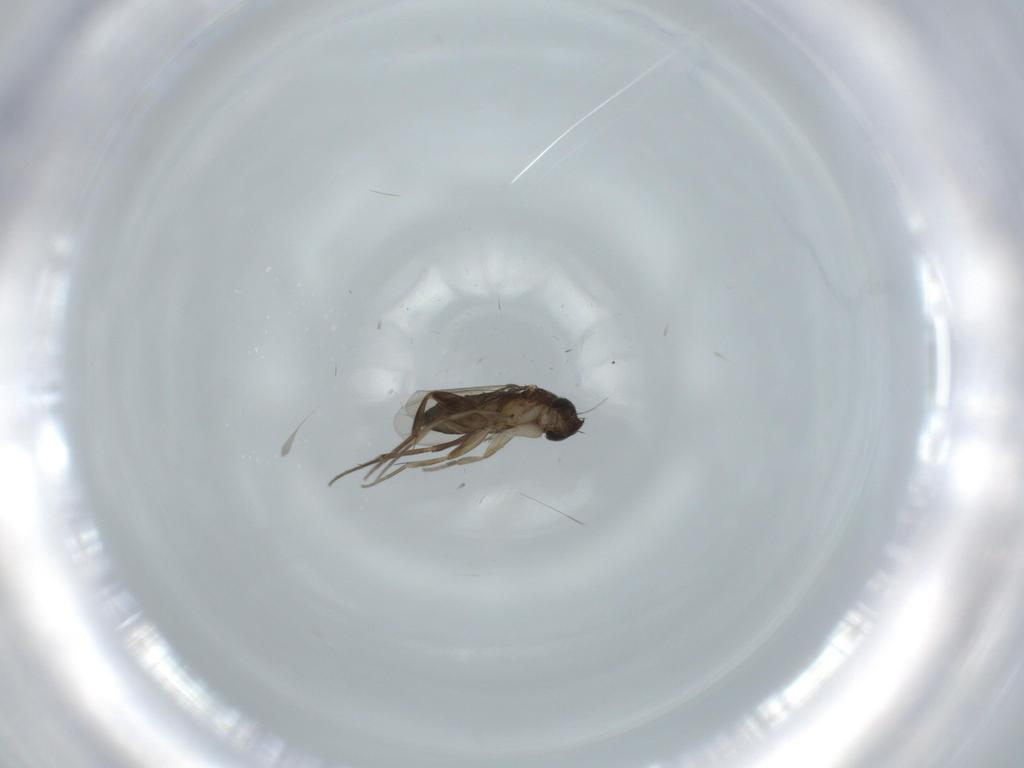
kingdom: Animalia
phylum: Arthropoda
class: Insecta
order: Diptera
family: Phoridae
